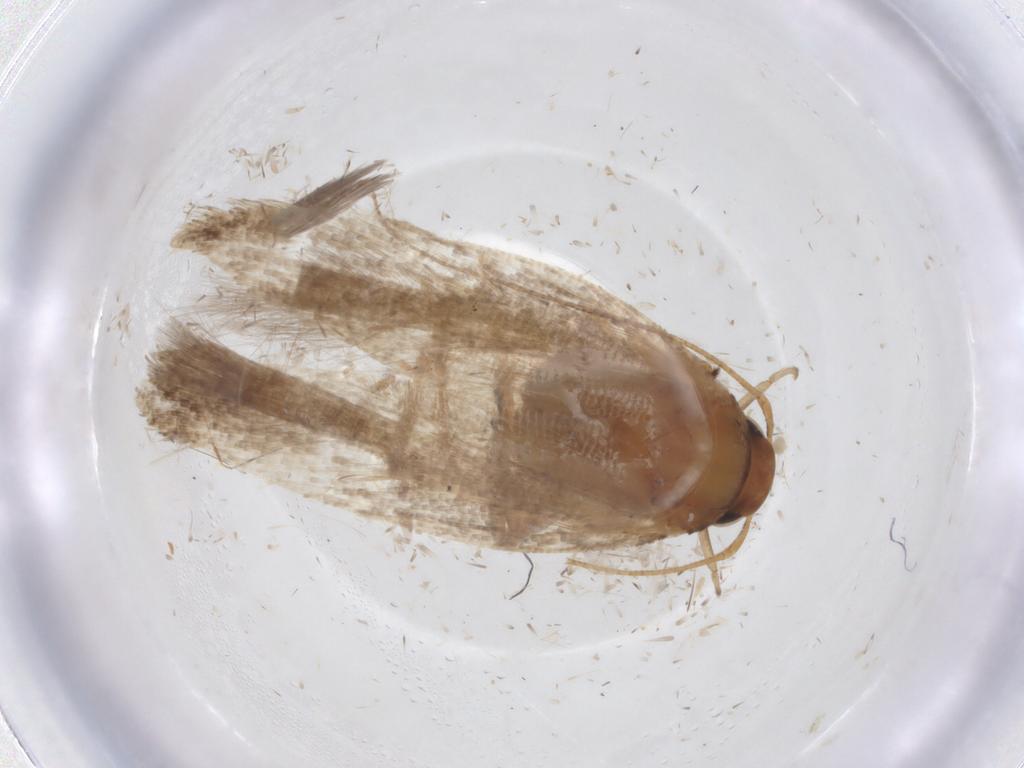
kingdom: Animalia
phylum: Arthropoda
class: Insecta
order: Lepidoptera
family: Gelechiidae
